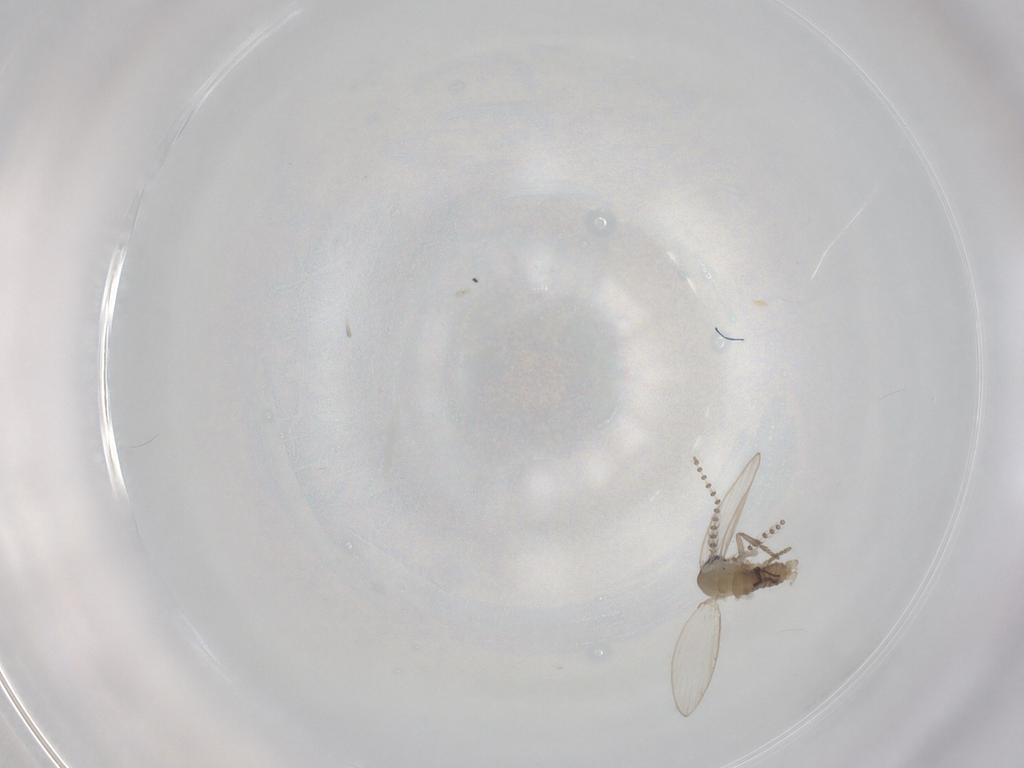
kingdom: Animalia
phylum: Arthropoda
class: Insecta
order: Diptera
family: Psychodidae
